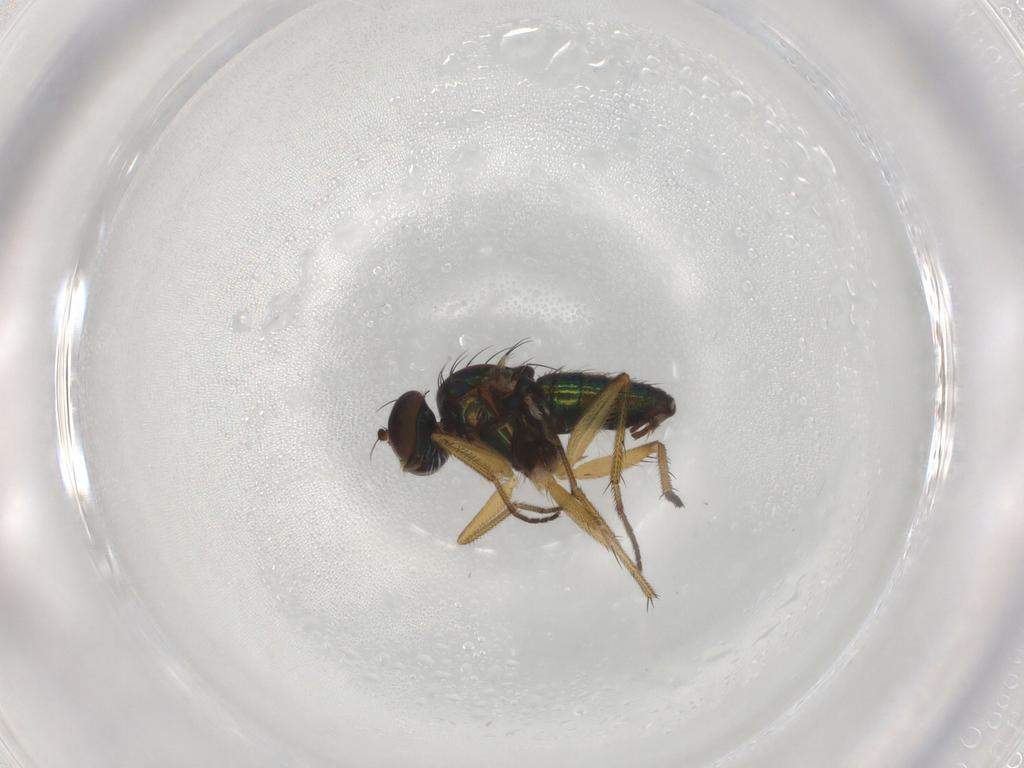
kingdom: Animalia
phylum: Arthropoda
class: Insecta
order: Diptera
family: Dolichopodidae
